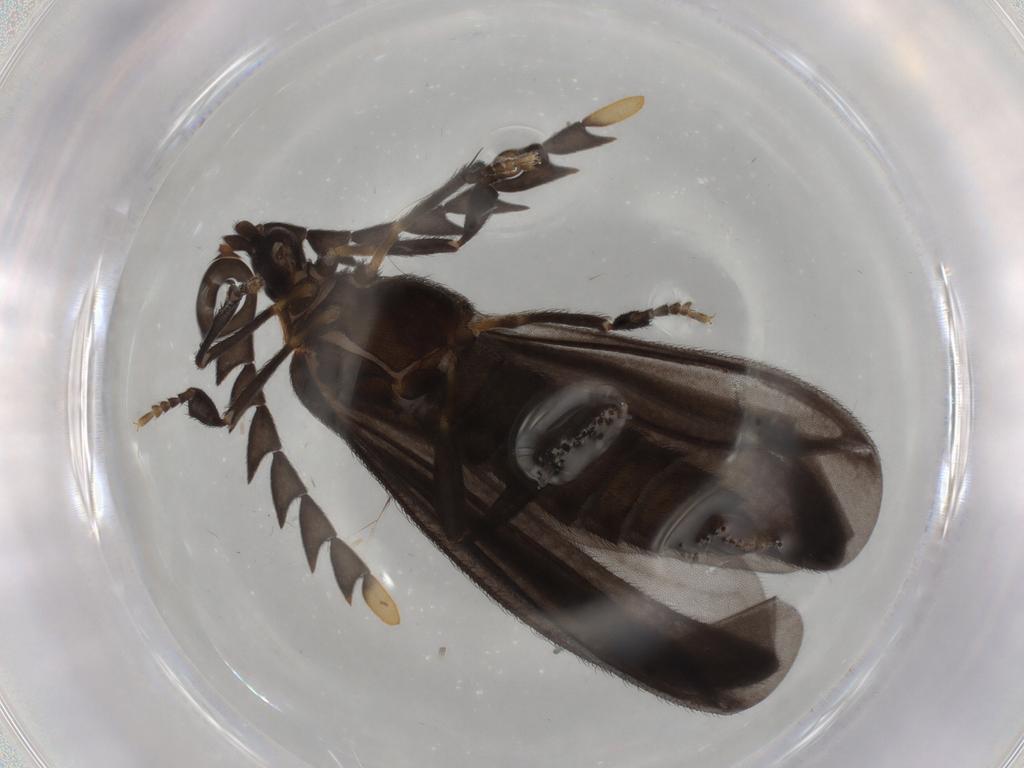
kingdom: Animalia
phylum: Arthropoda
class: Insecta
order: Coleoptera
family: Lycidae
